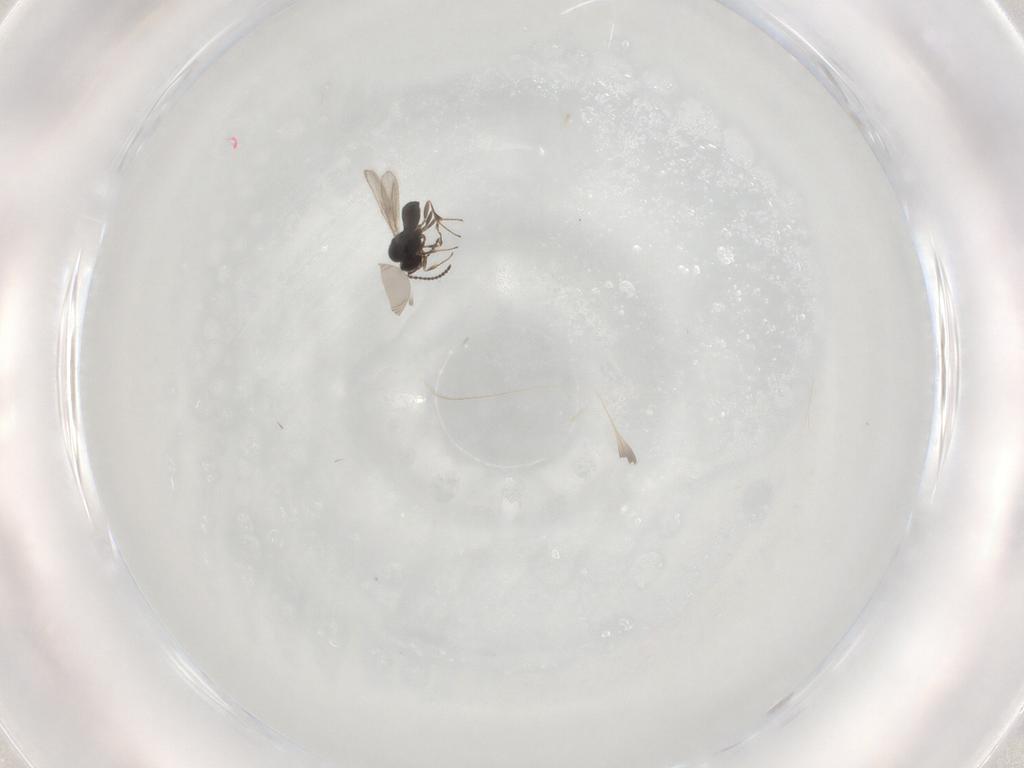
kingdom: Animalia
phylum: Arthropoda
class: Insecta
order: Hymenoptera
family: Scelionidae
